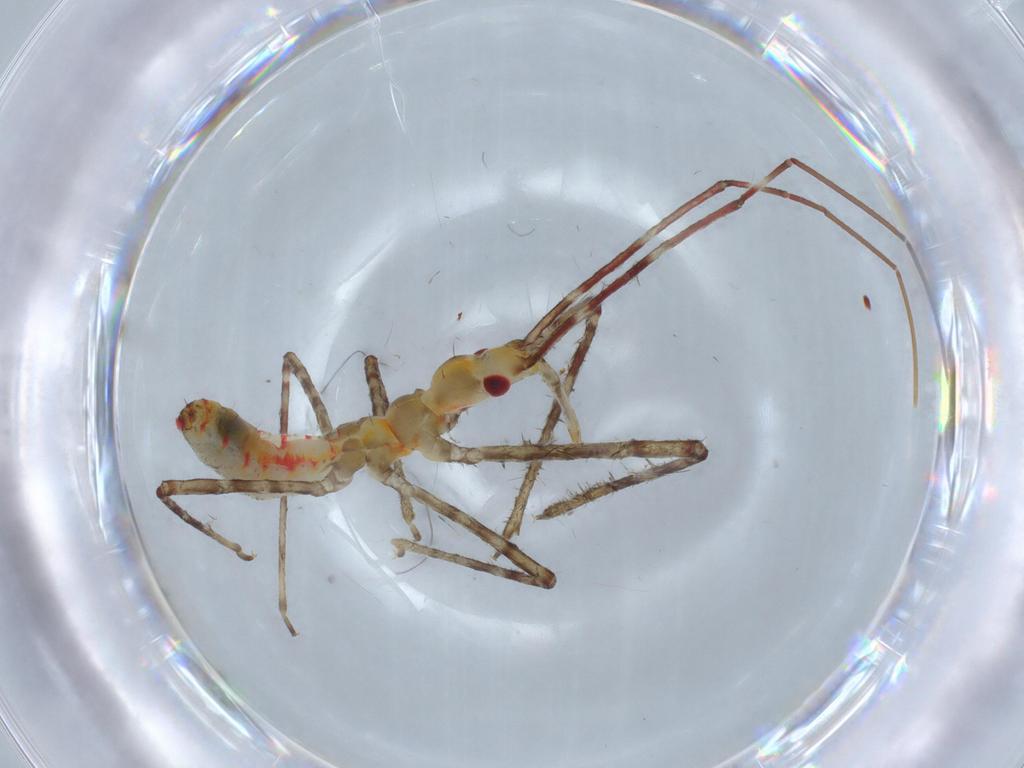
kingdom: Animalia
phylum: Arthropoda
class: Insecta
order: Hemiptera
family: Reduviidae
